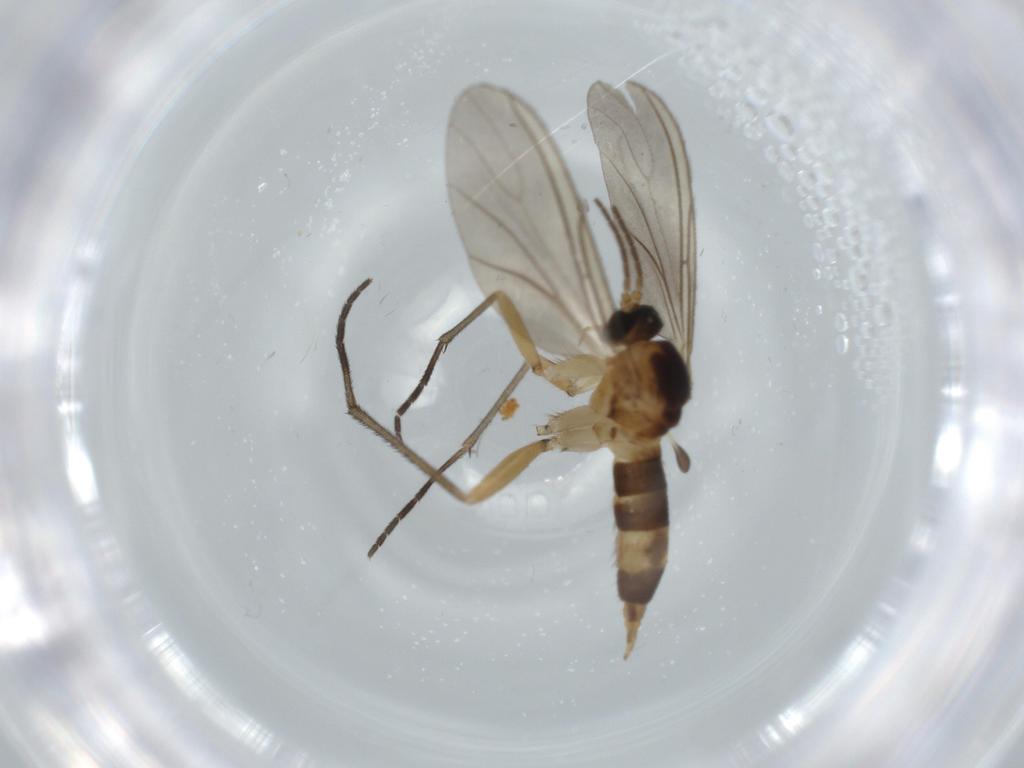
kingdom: Animalia
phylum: Arthropoda
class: Insecta
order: Diptera
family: Sciaridae
